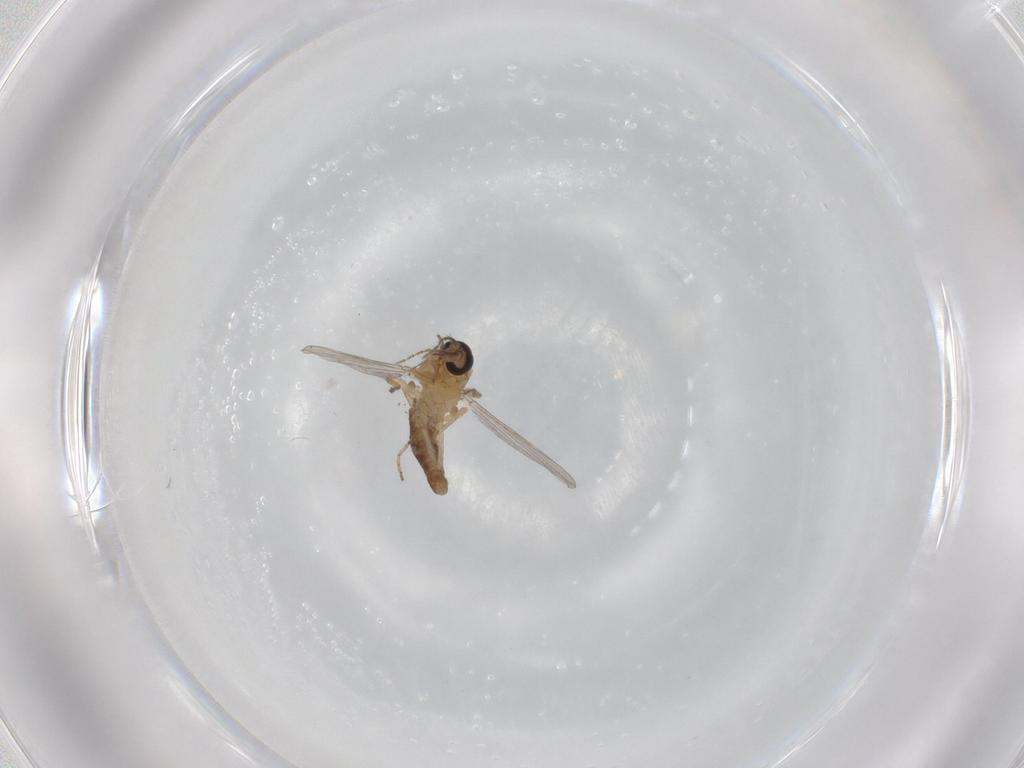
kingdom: Animalia
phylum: Arthropoda
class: Insecta
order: Diptera
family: Ceratopogonidae
